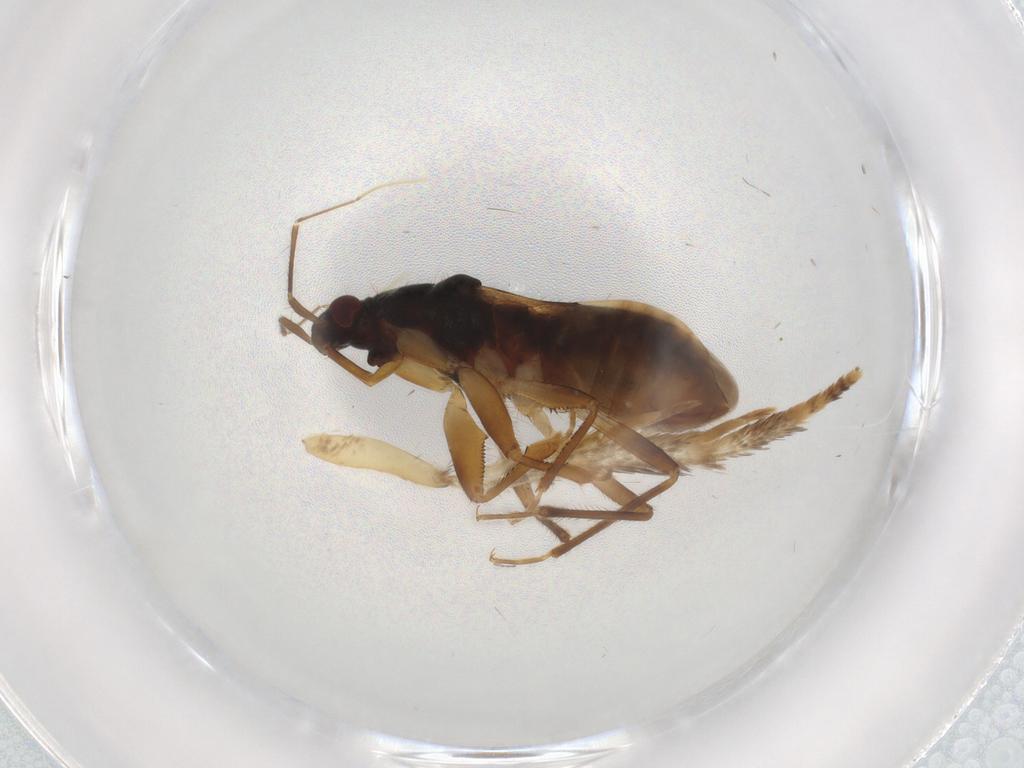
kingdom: Animalia
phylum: Arthropoda
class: Insecta
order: Hemiptera
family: Nabidae
